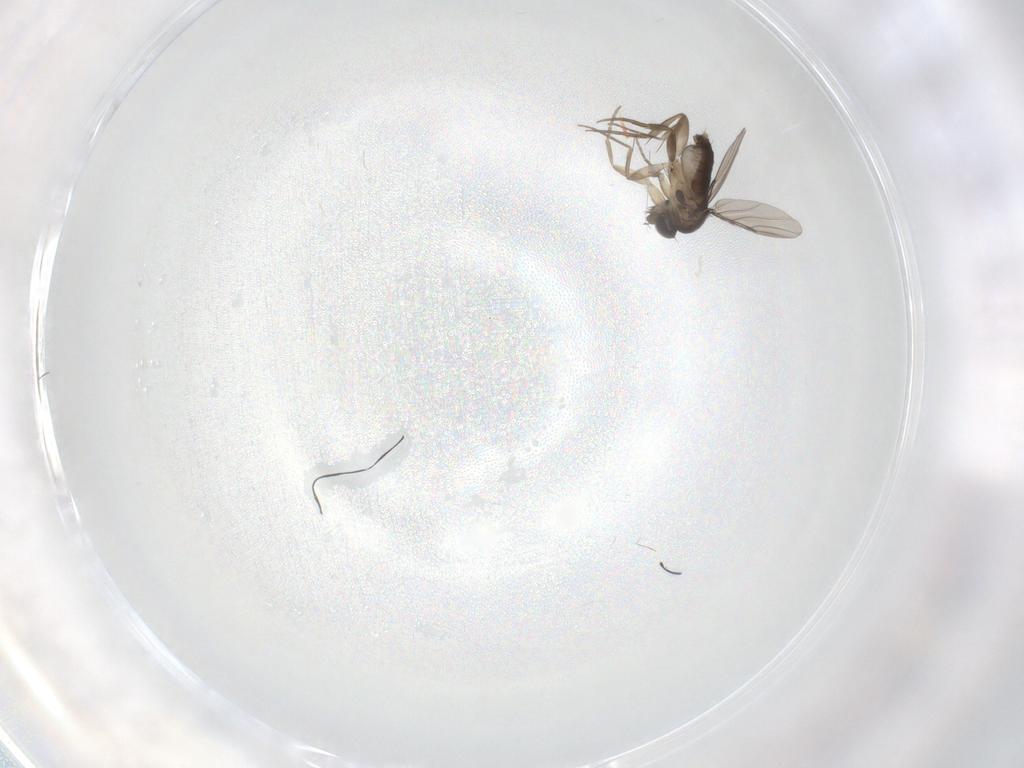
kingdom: Animalia
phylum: Arthropoda
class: Insecta
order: Diptera
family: Phoridae
